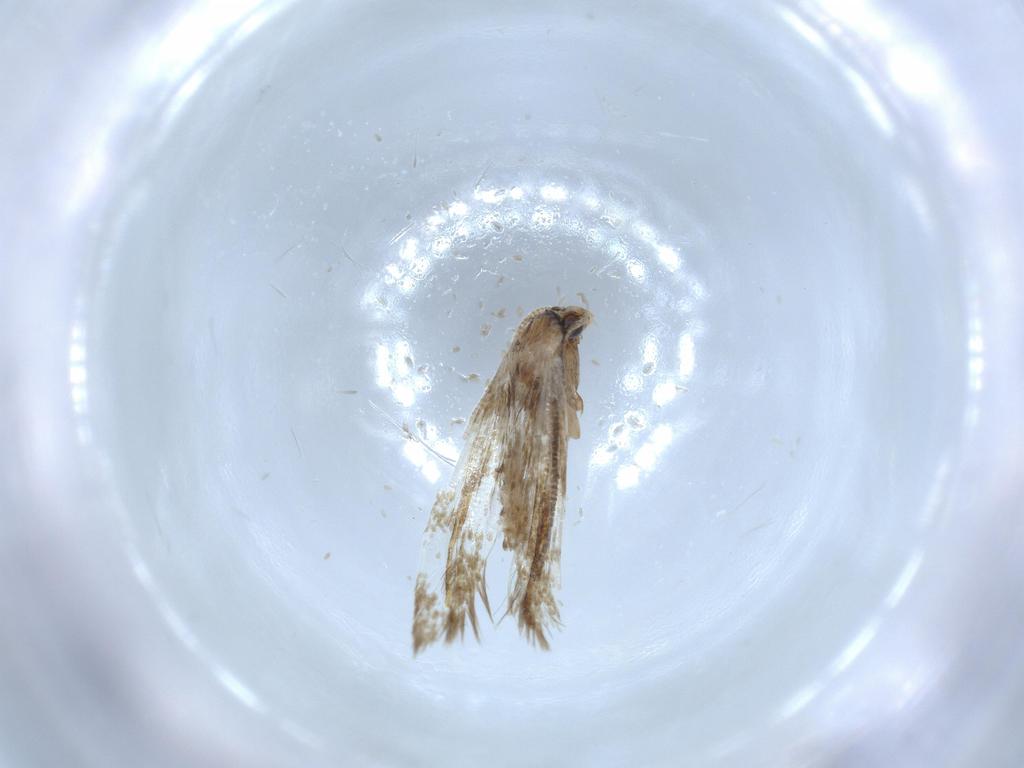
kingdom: Animalia
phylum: Arthropoda
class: Insecta
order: Lepidoptera
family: Tineidae
